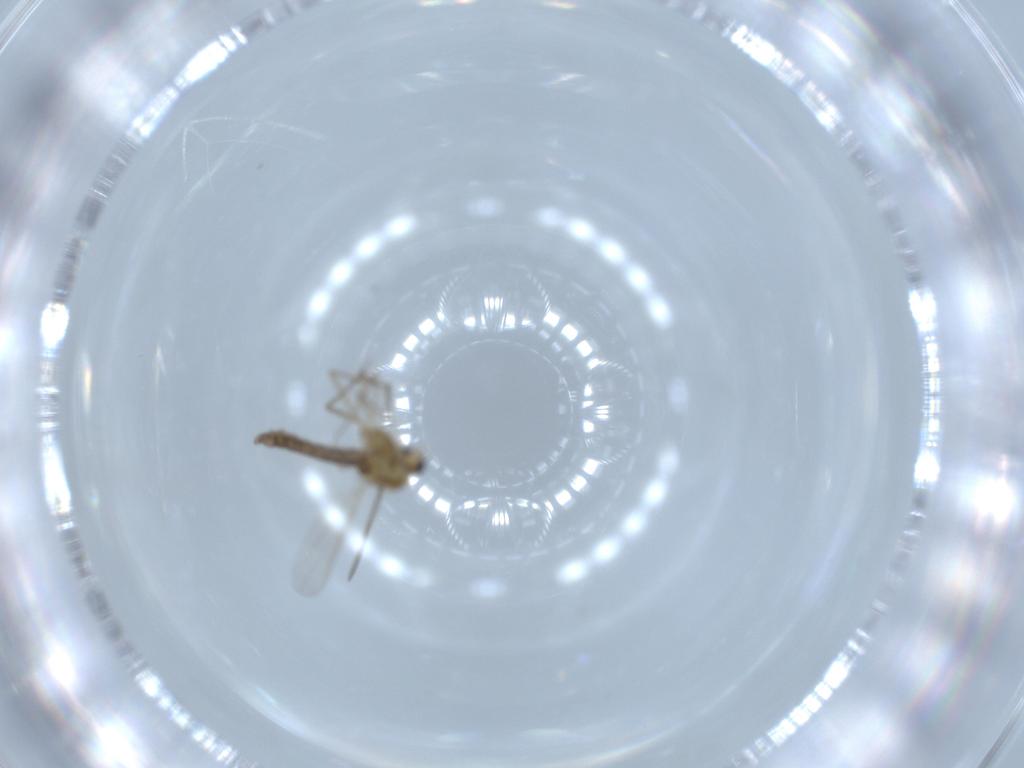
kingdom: Animalia
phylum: Arthropoda
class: Insecta
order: Diptera
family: Chironomidae
